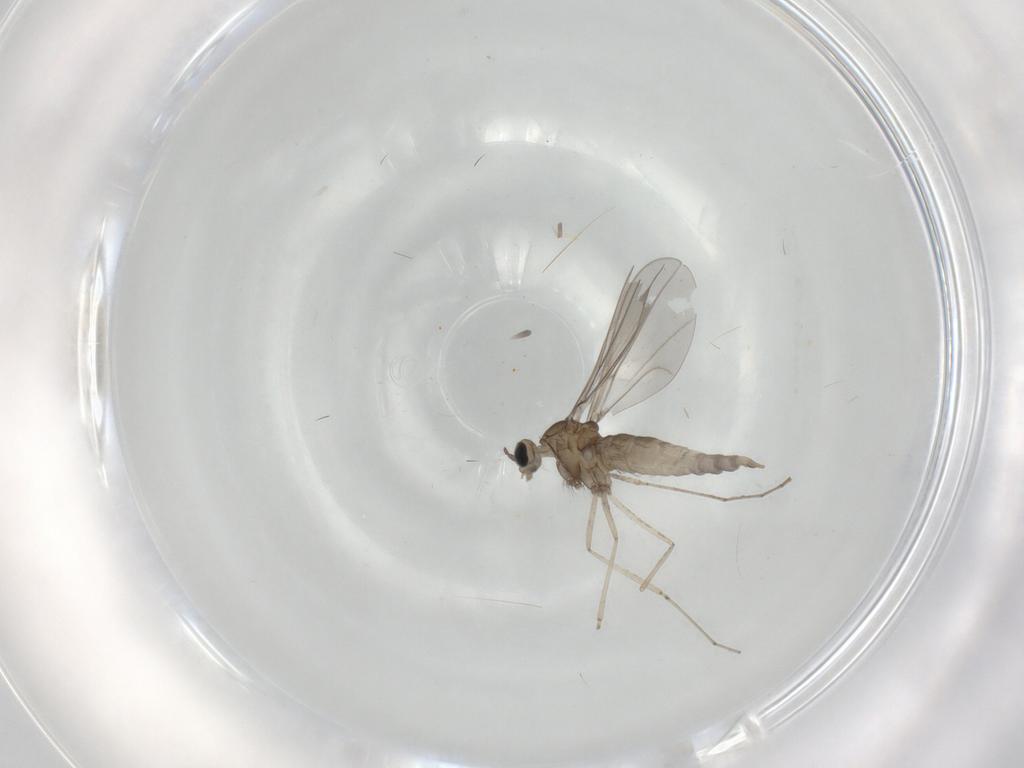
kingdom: Animalia
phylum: Arthropoda
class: Insecta
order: Diptera
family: Cecidomyiidae
